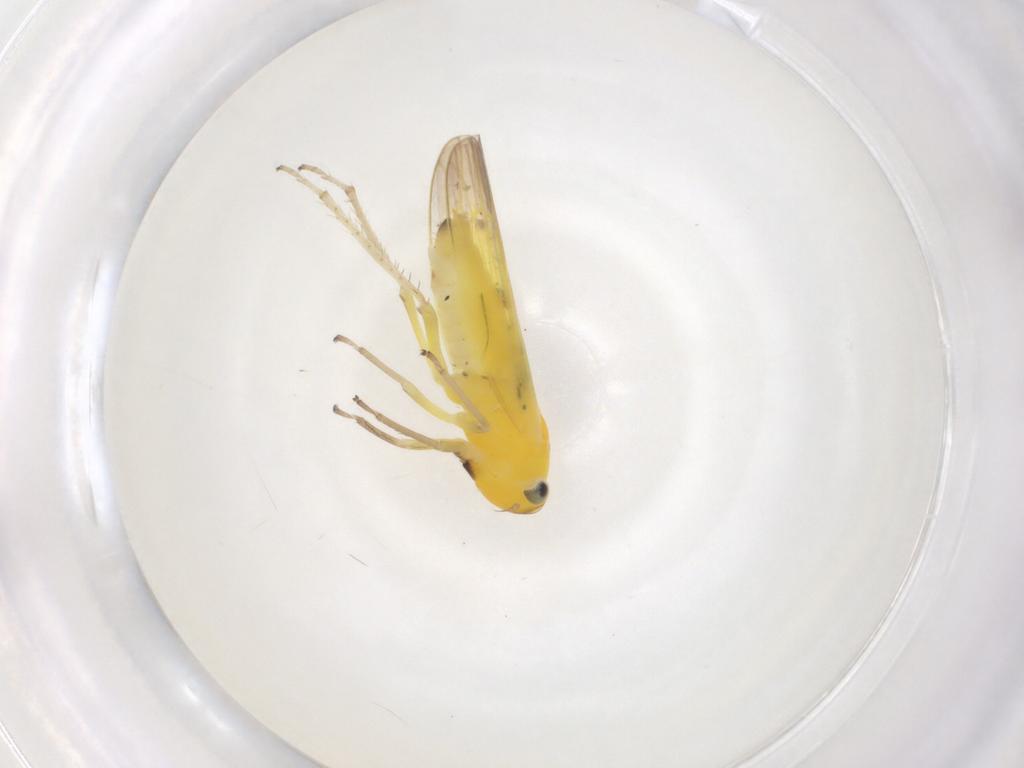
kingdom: Animalia
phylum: Arthropoda
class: Insecta
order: Hemiptera
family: Cicadellidae
